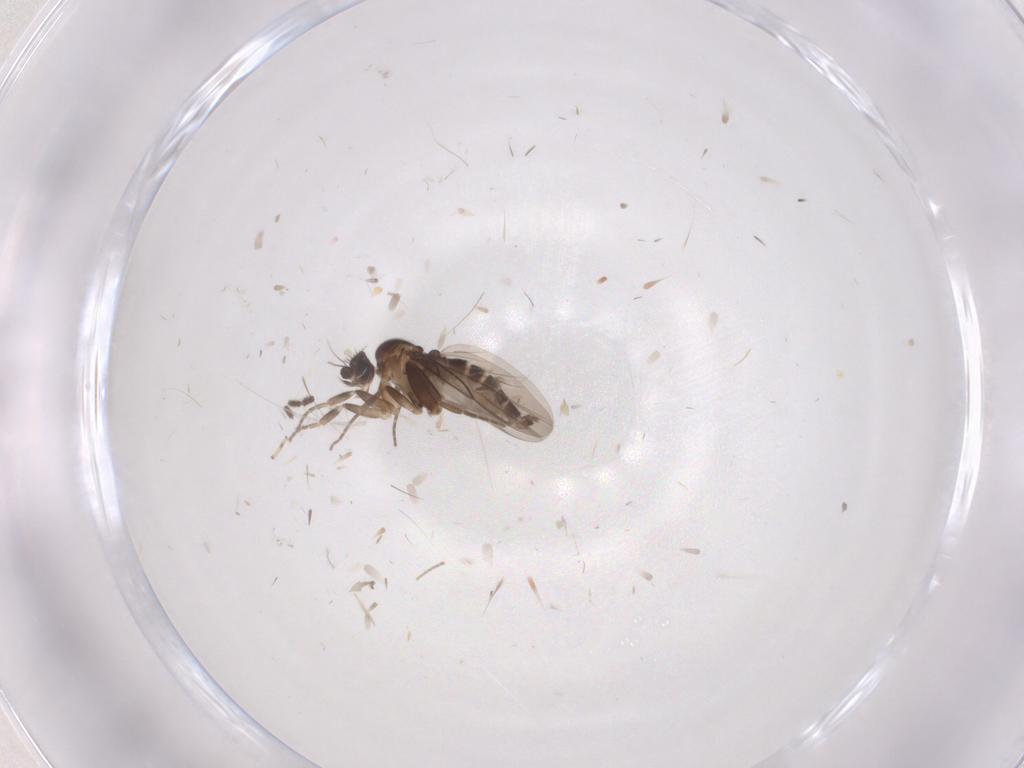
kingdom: Animalia
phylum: Arthropoda
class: Insecta
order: Diptera
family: Sciaridae
